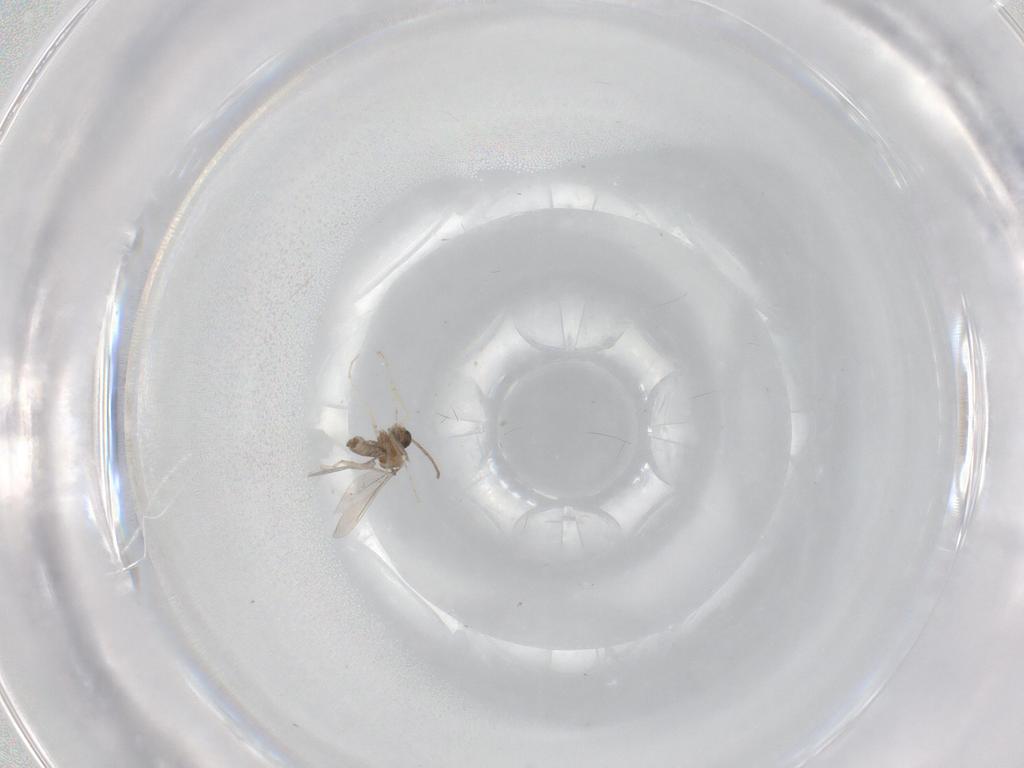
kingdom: Animalia
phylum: Arthropoda
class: Insecta
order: Diptera
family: Cecidomyiidae
